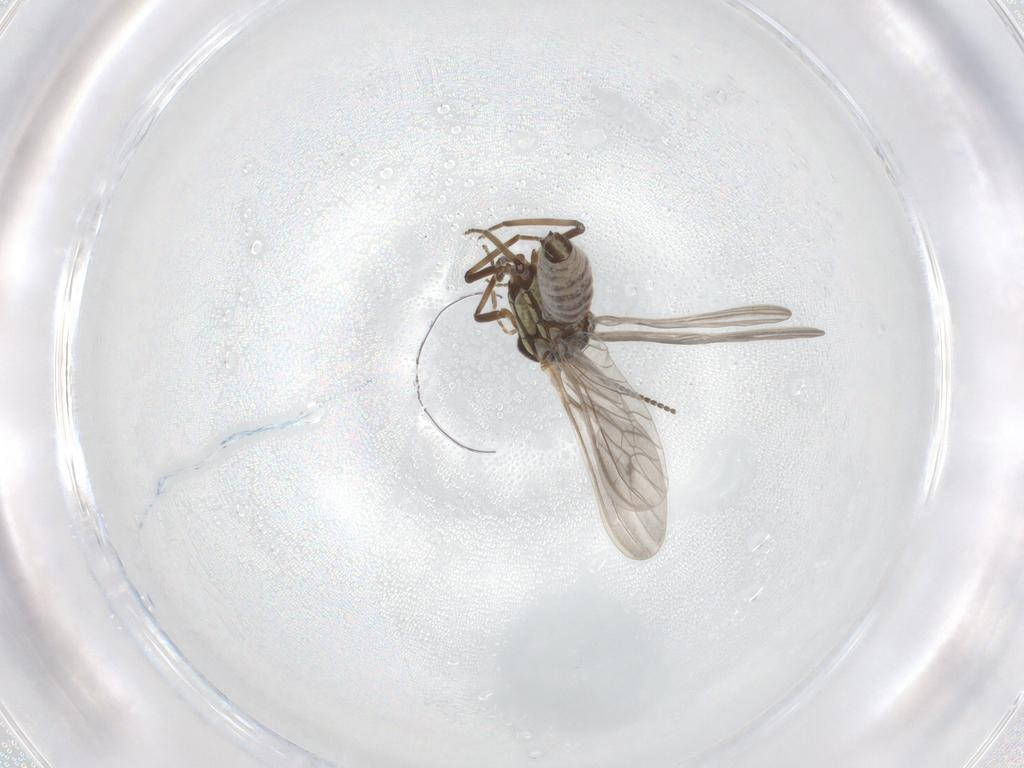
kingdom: Animalia
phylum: Arthropoda
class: Insecta
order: Neuroptera
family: Coniopterygidae
